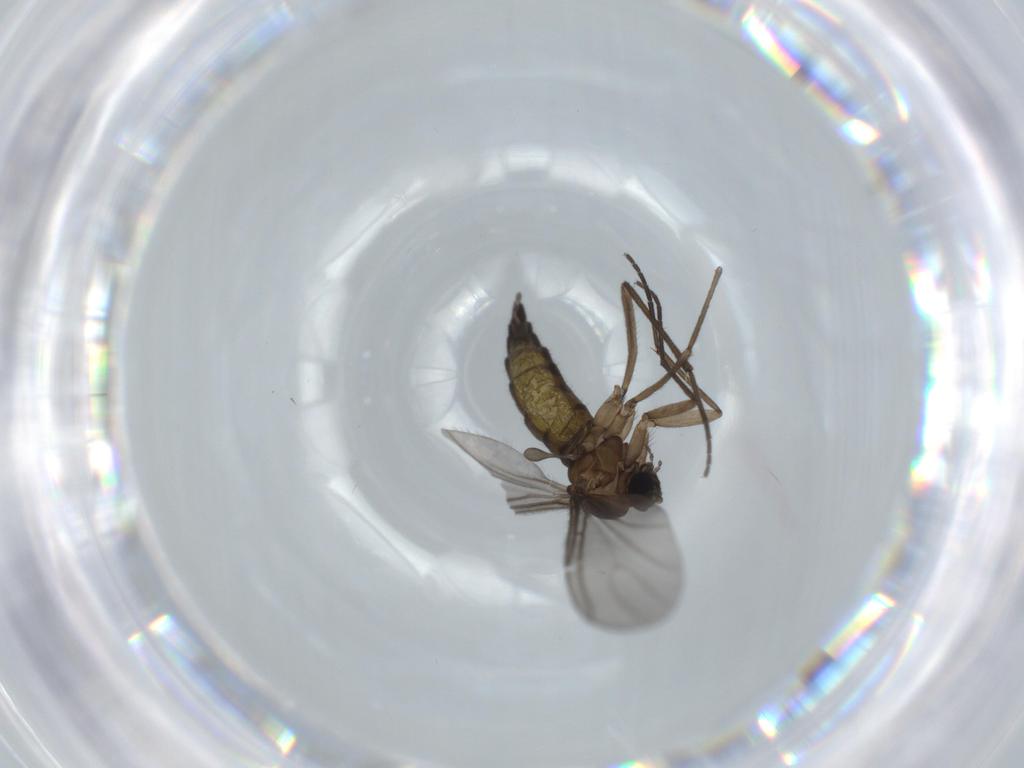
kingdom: Animalia
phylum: Arthropoda
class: Insecta
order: Diptera
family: Sciaridae
